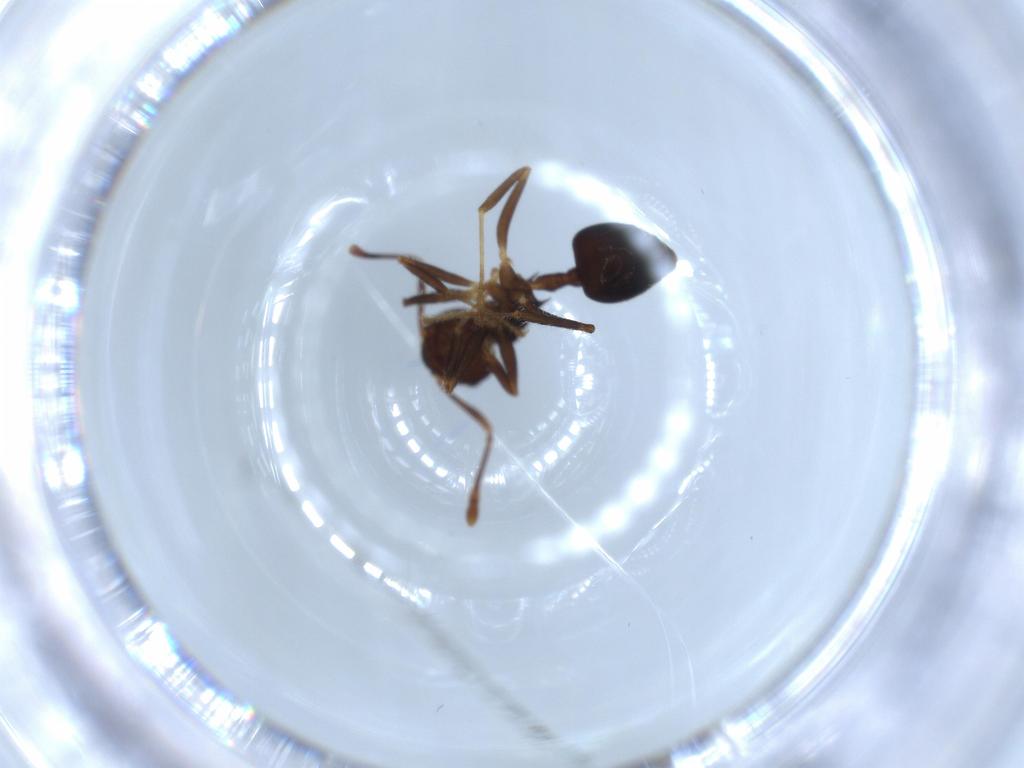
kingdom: Animalia
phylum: Arthropoda
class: Insecta
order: Hymenoptera
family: Formicidae
